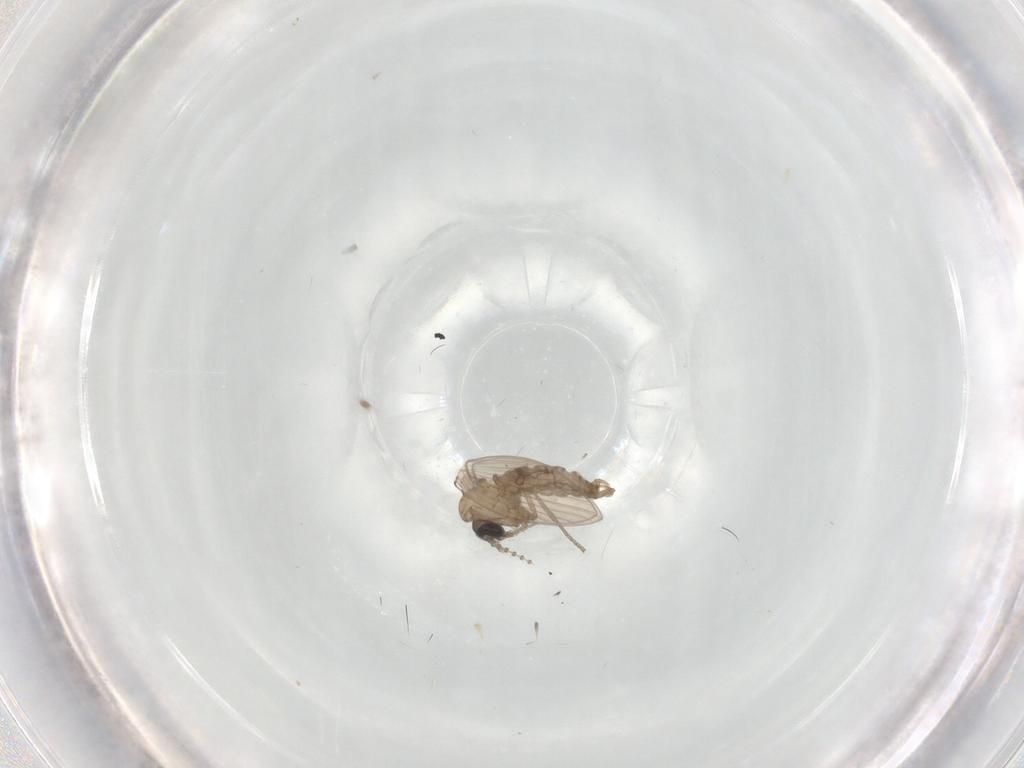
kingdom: Animalia
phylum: Arthropoda
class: Insecta
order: Diptera
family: Psychodidae
